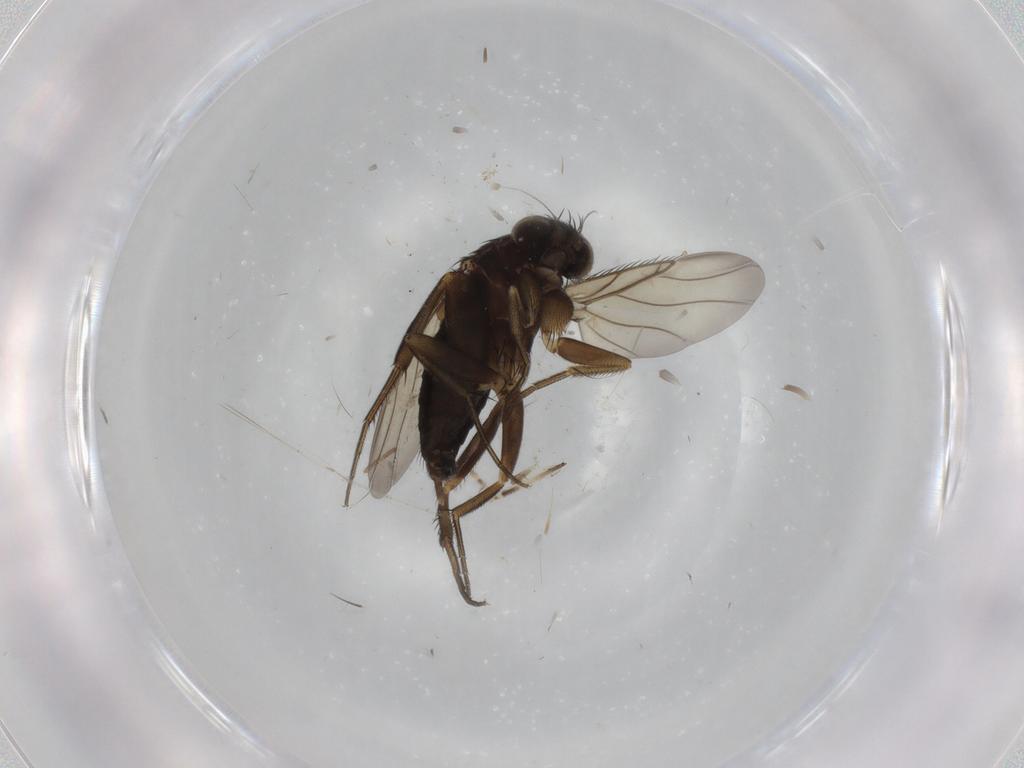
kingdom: Animalia
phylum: Arthropoda
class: Insecta
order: Diptera
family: Phoridae
